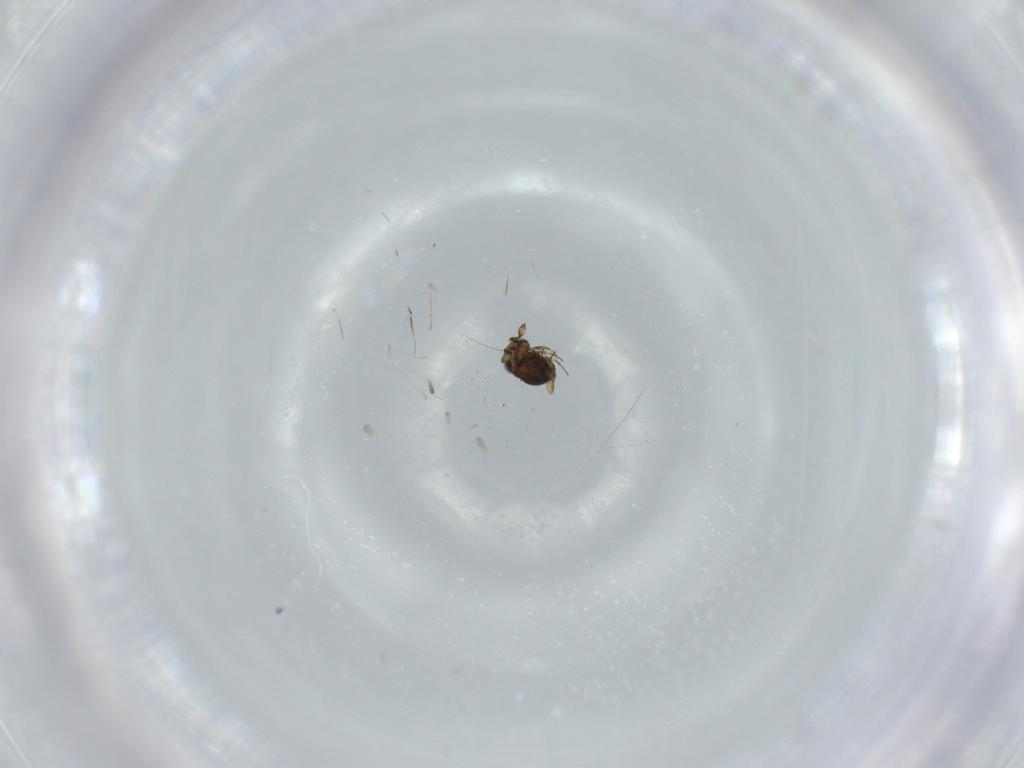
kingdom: Animalia
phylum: Arthropoda
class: Insecta
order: Hymenoptera
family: Scelionidae
